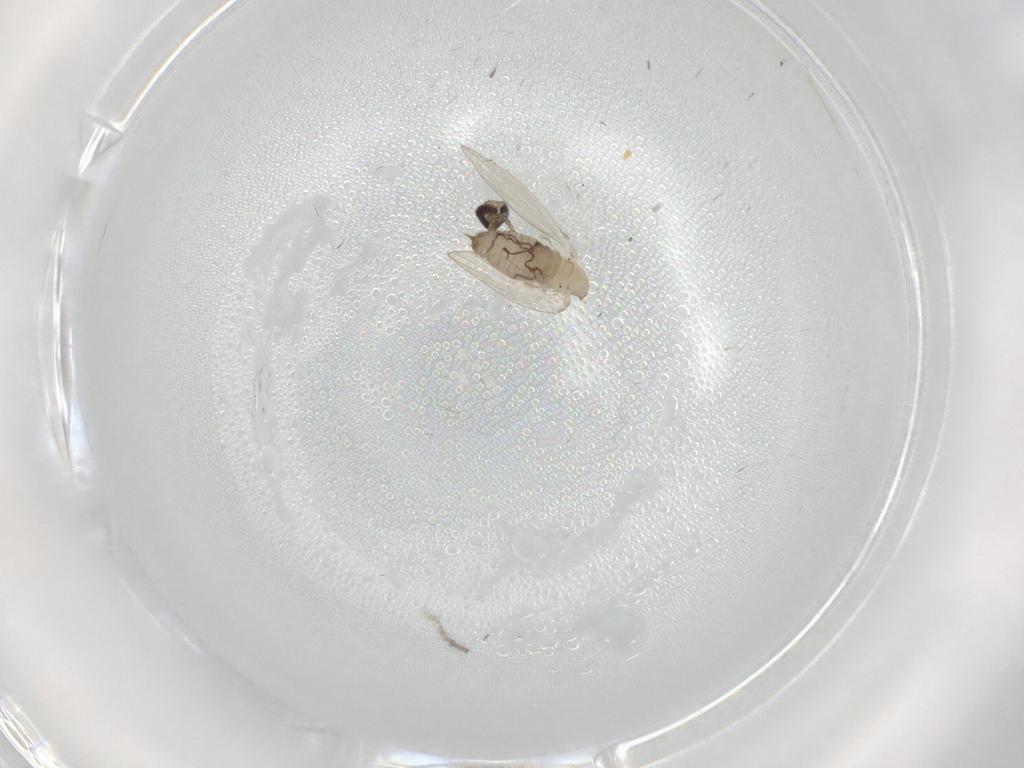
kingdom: Animalia
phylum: Arthropoda
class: Insecta
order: Diptera
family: Psychodidae
